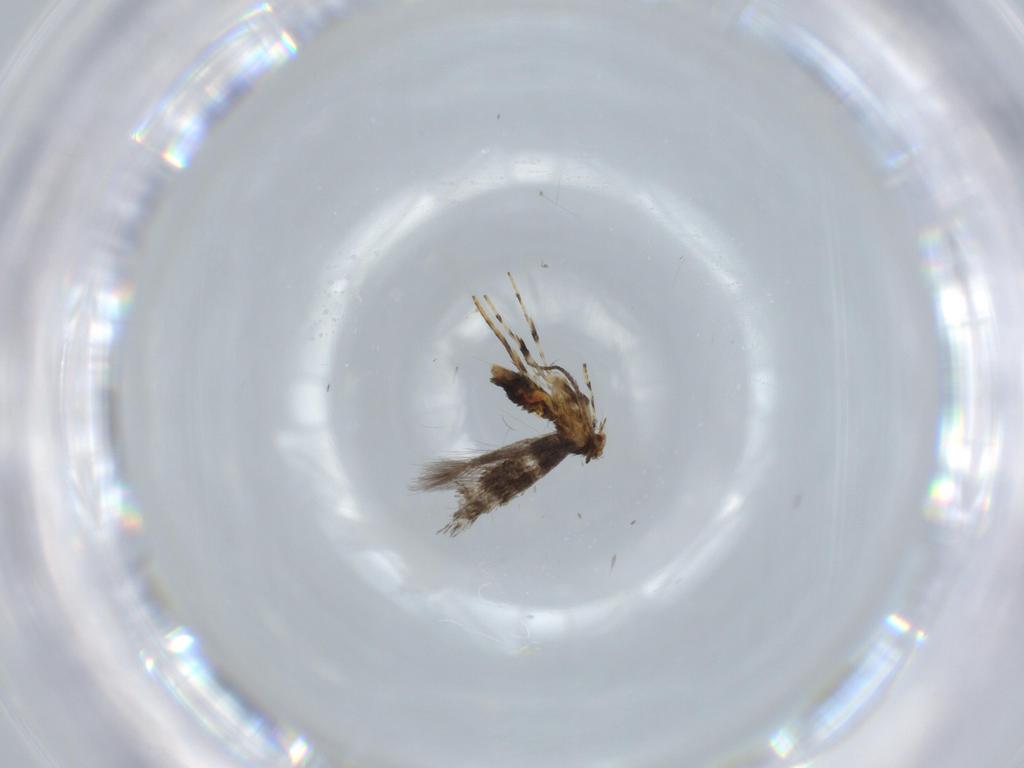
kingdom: Animalia
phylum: Arthropoda
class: Insecta
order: Lepidoptera
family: Gracillariidae
